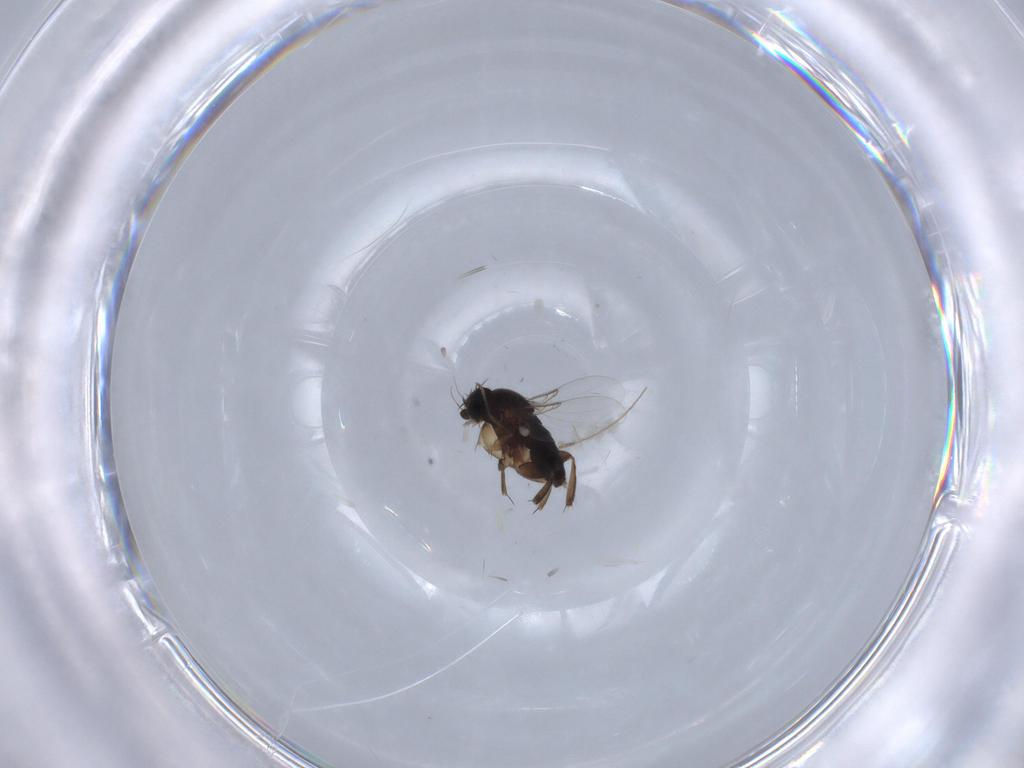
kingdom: Animalia
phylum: Arthropoda
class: Insecta
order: Diptera
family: Phoridae
